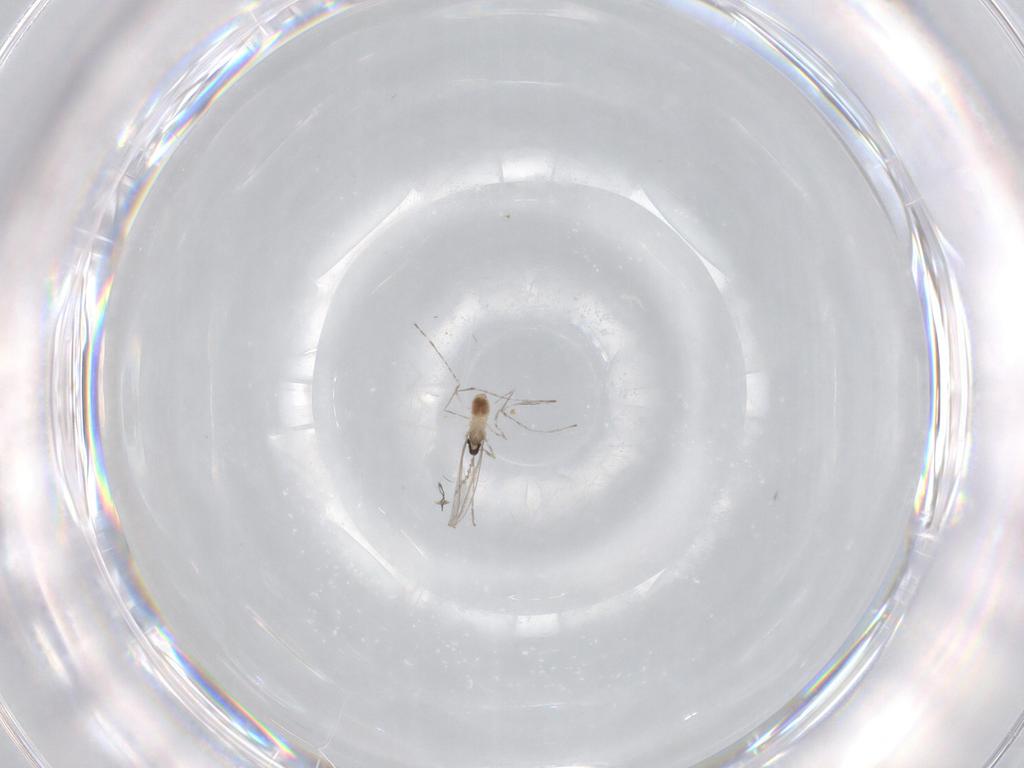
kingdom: Animalia
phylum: Arthropoda
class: Insecta
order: Diptera
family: Cecidomyiidae
